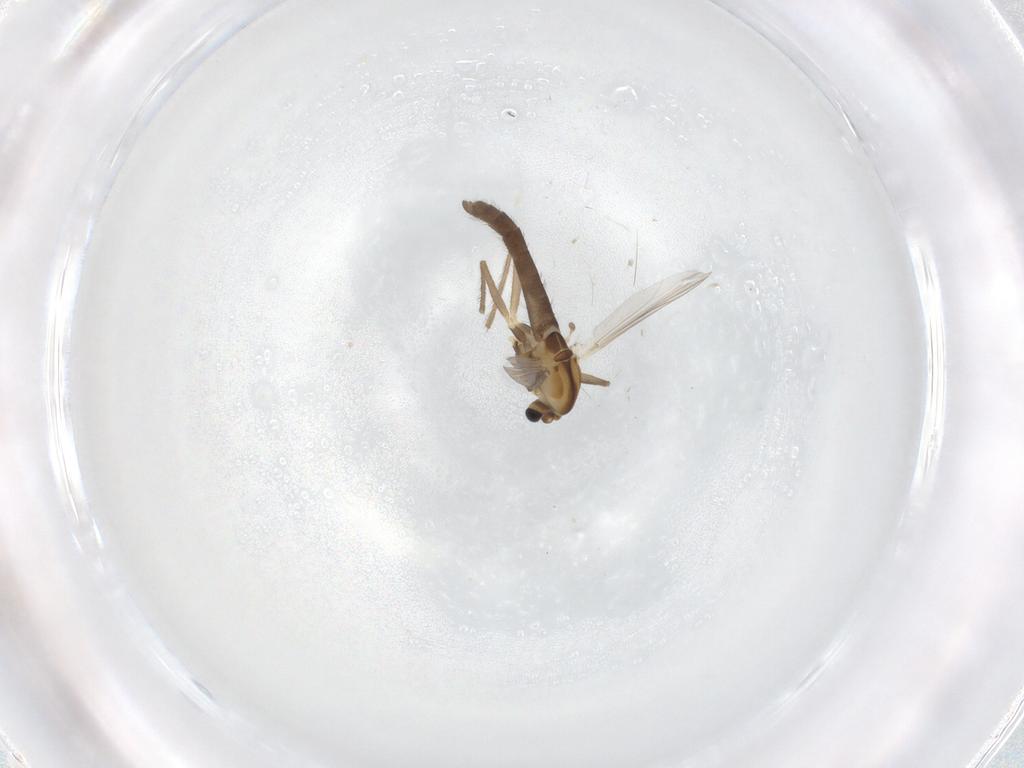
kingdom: Animalia
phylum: Arthropoda
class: Insecta
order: Diptera
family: Chironomidae
